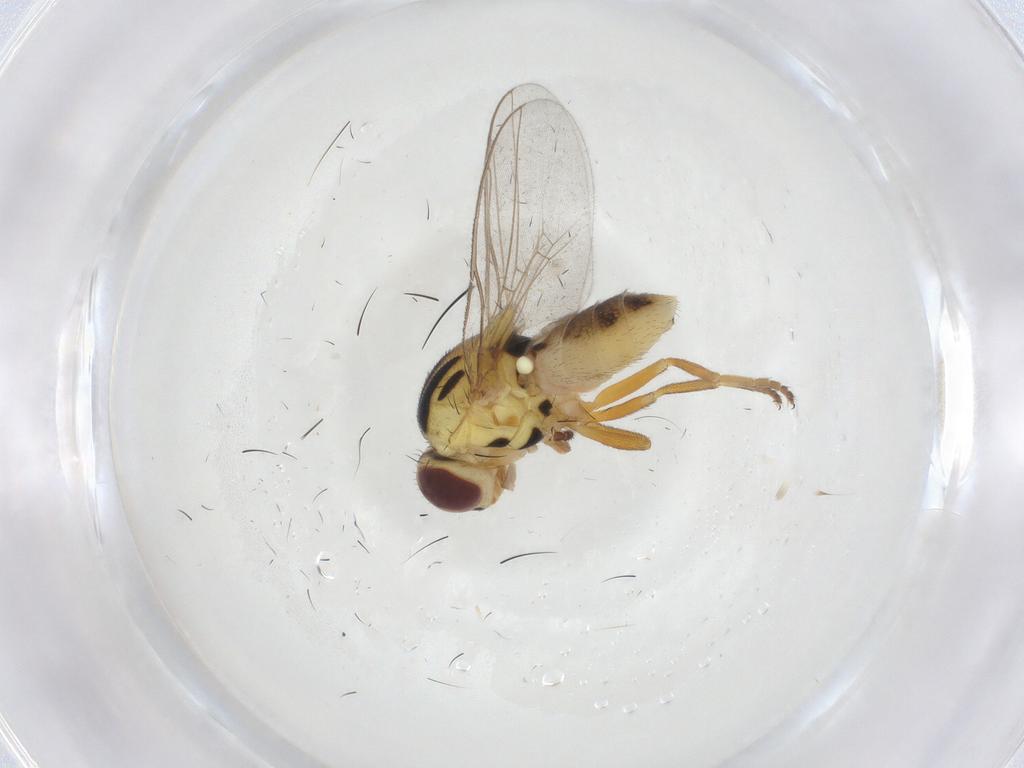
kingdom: Animalia
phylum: Arthropoda
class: Insecta
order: Diptera
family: Chloropidae
